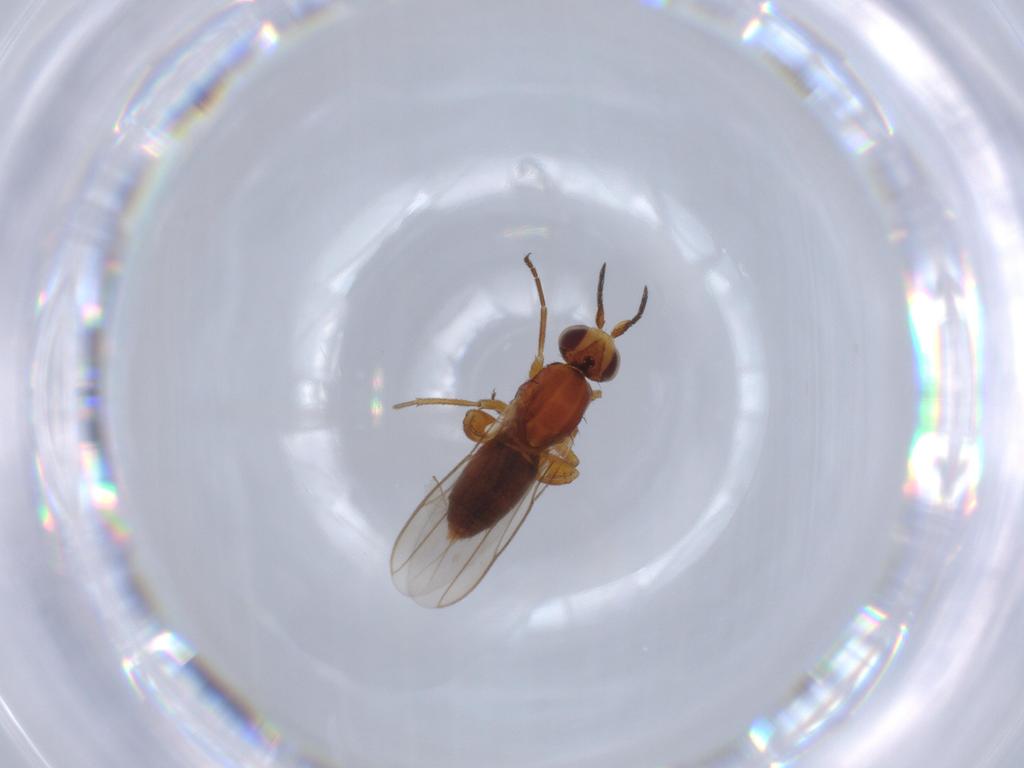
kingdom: Animalia
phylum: Arthropoda
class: Insecta
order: Diptera
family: Chloropidae
